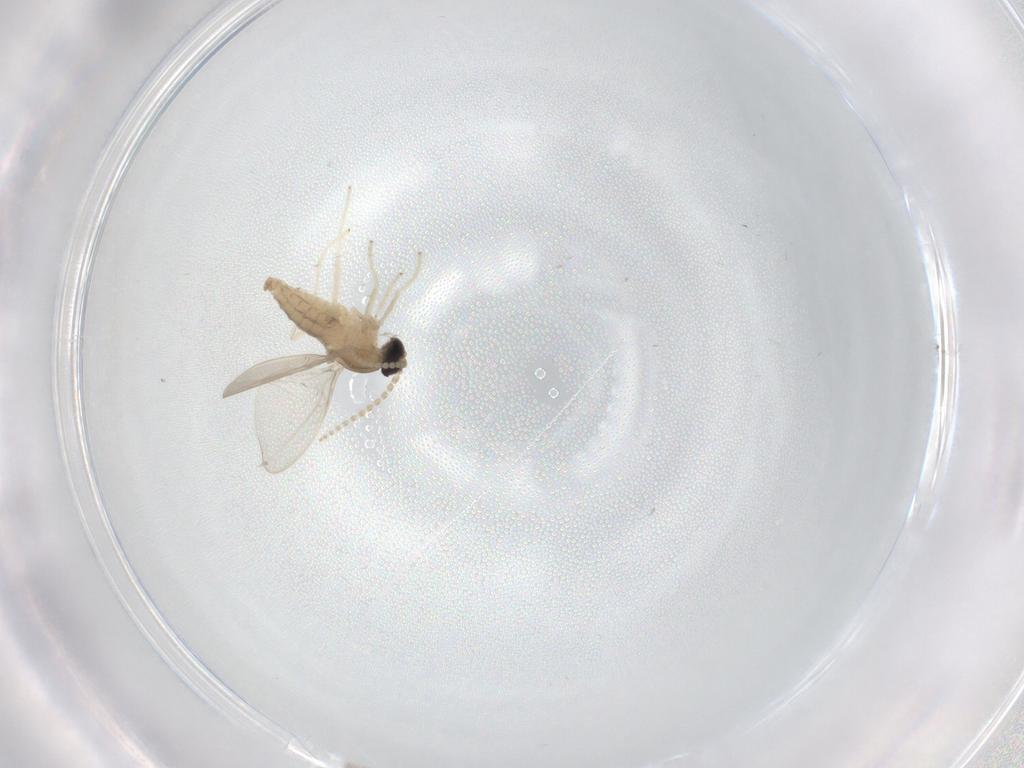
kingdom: Animalia
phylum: Arthropoda
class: Insecta
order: Diptera
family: Cecidomyiidae
